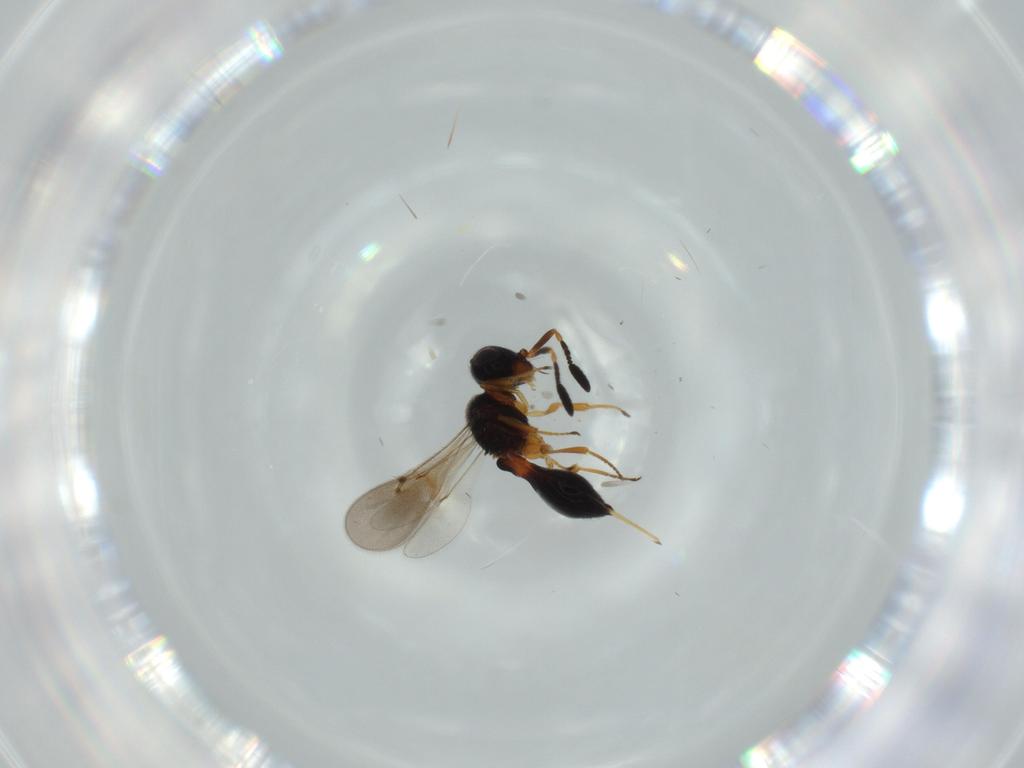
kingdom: Animalia
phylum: Arthropoda
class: Insecta
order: Hymenoptera
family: Scelionidae
